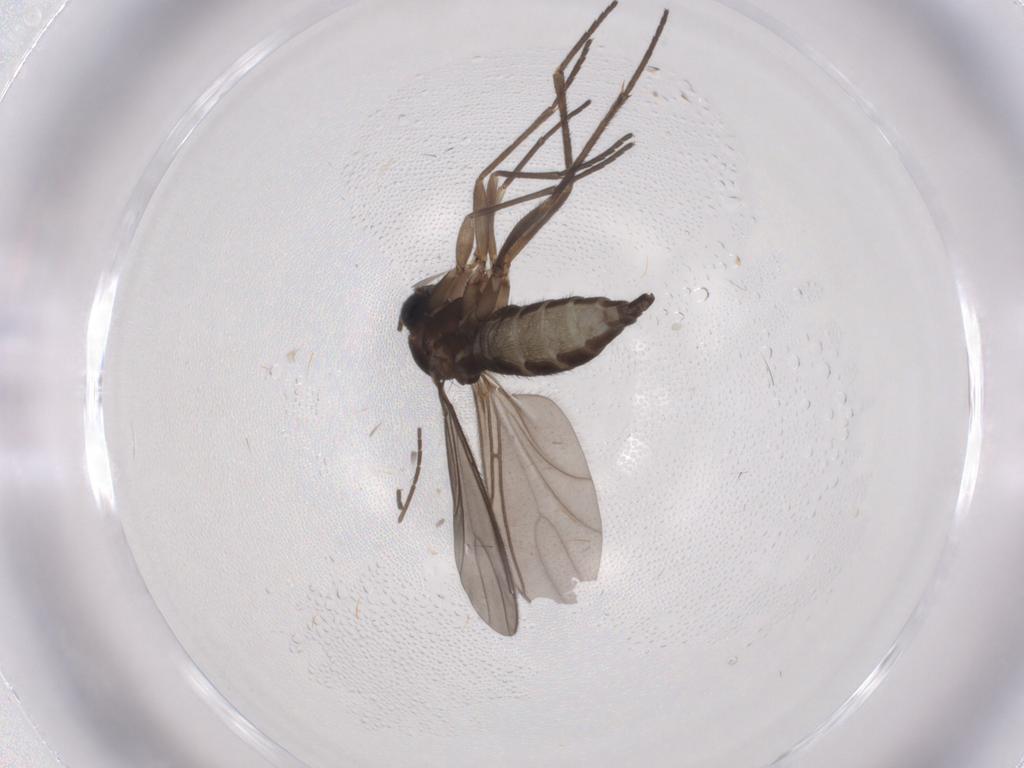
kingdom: Animalia
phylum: Arthropoda
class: Insecta
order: Diptera
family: Sciaridae
